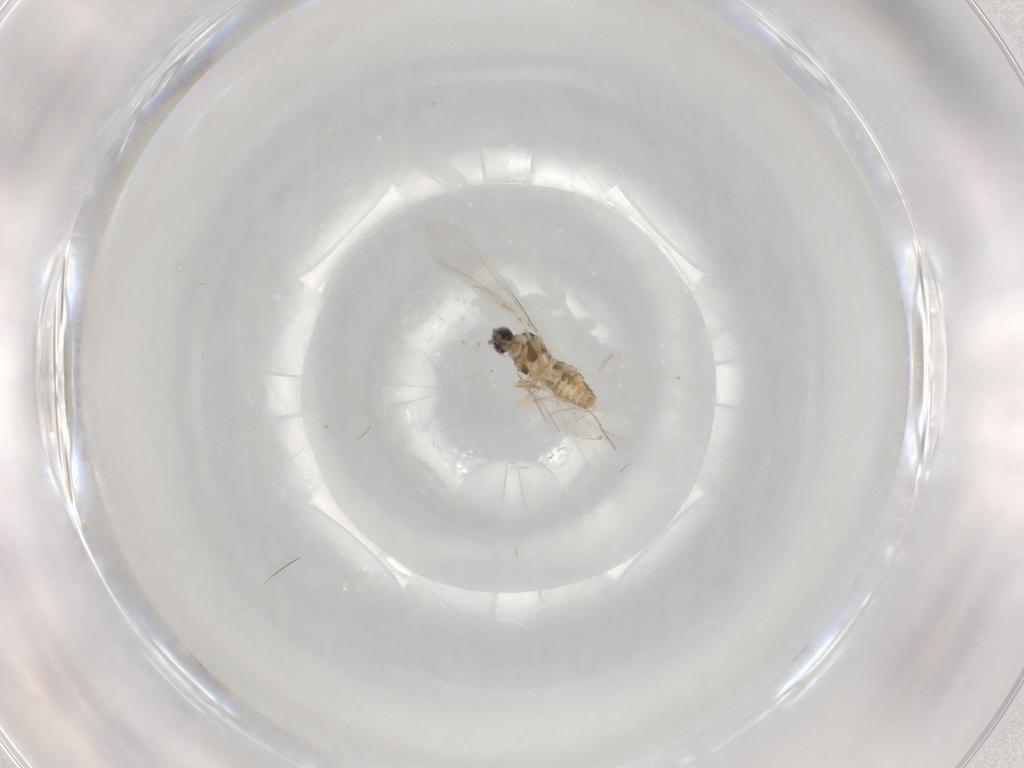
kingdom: Animalia
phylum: Arthropoda
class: Insecta
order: Diptera
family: Cecidomyiidae
